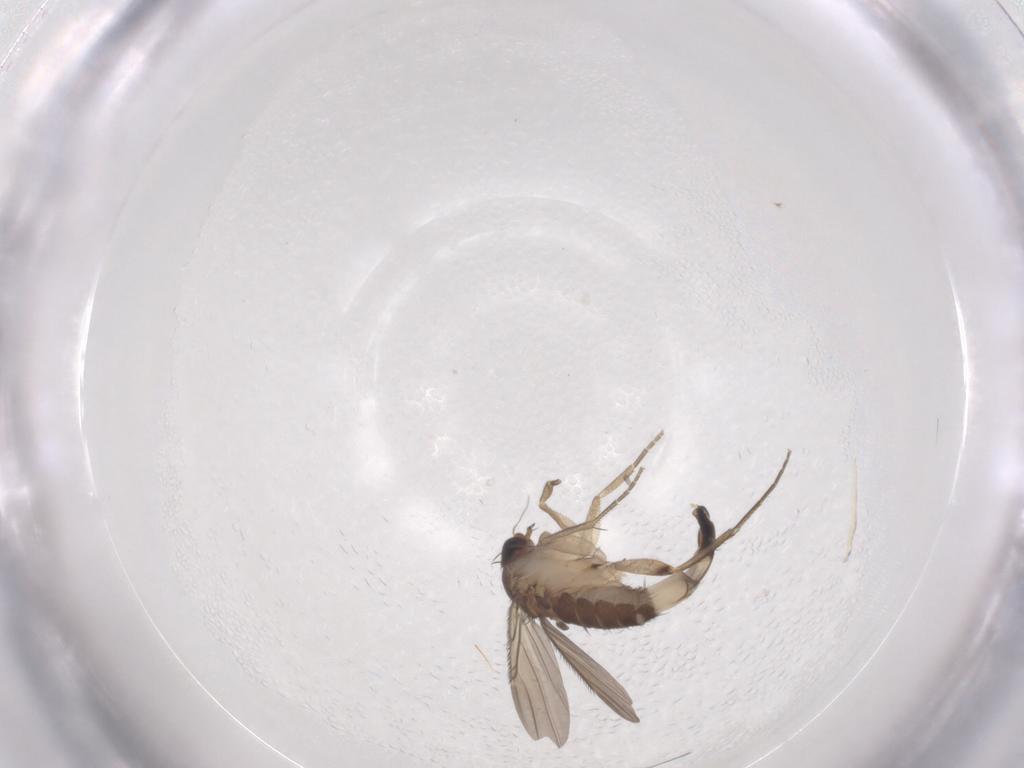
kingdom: Animalia
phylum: Arthropoda
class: Insecta
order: Diptera
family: Phoridae
